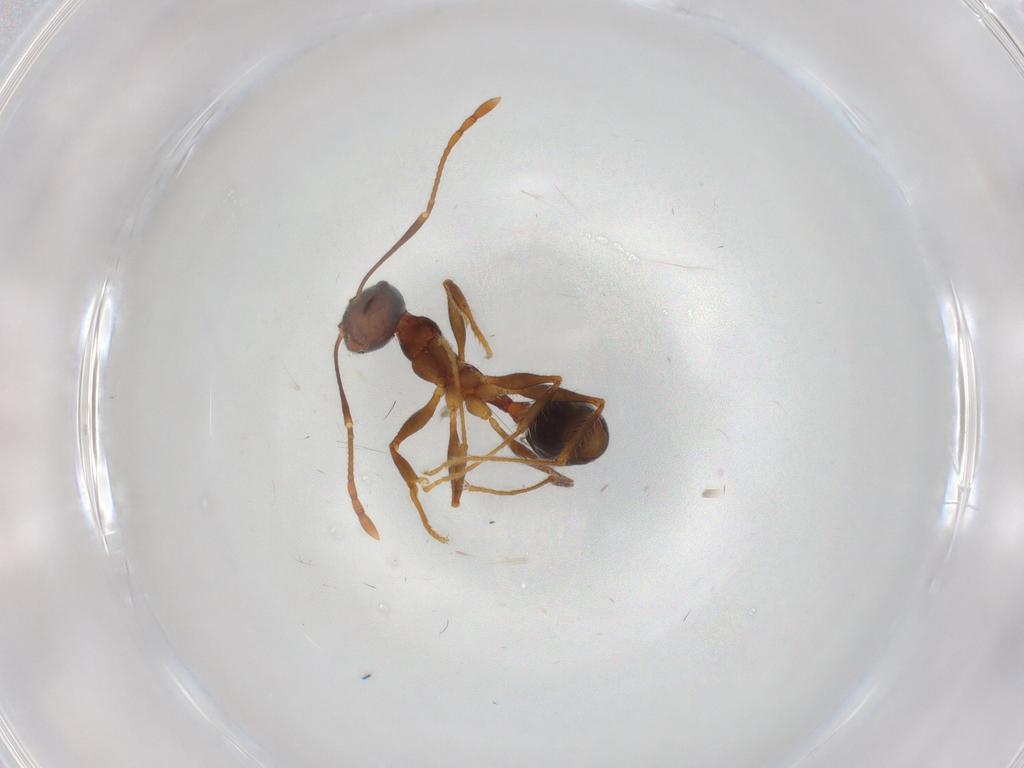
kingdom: Animalia
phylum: Arthropoda
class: Insecta
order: Hymenoptera
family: Formicidae
